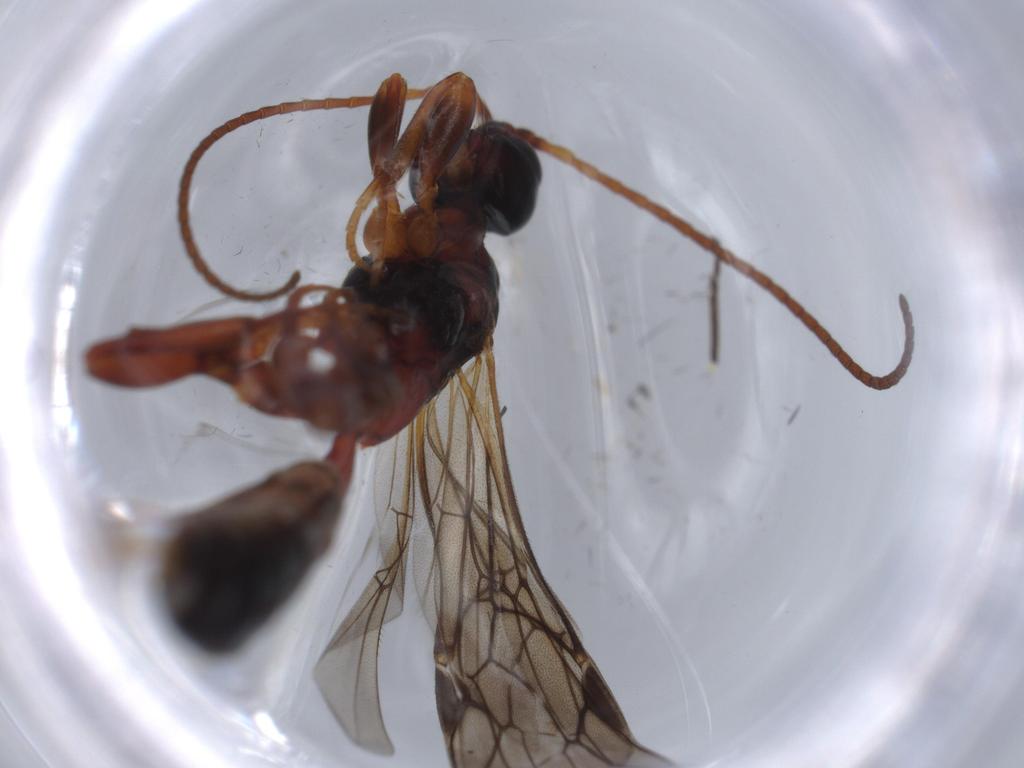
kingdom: Animalia
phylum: Arthropoda
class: Insecta
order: Hymenoptera
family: Ichneumonidae
